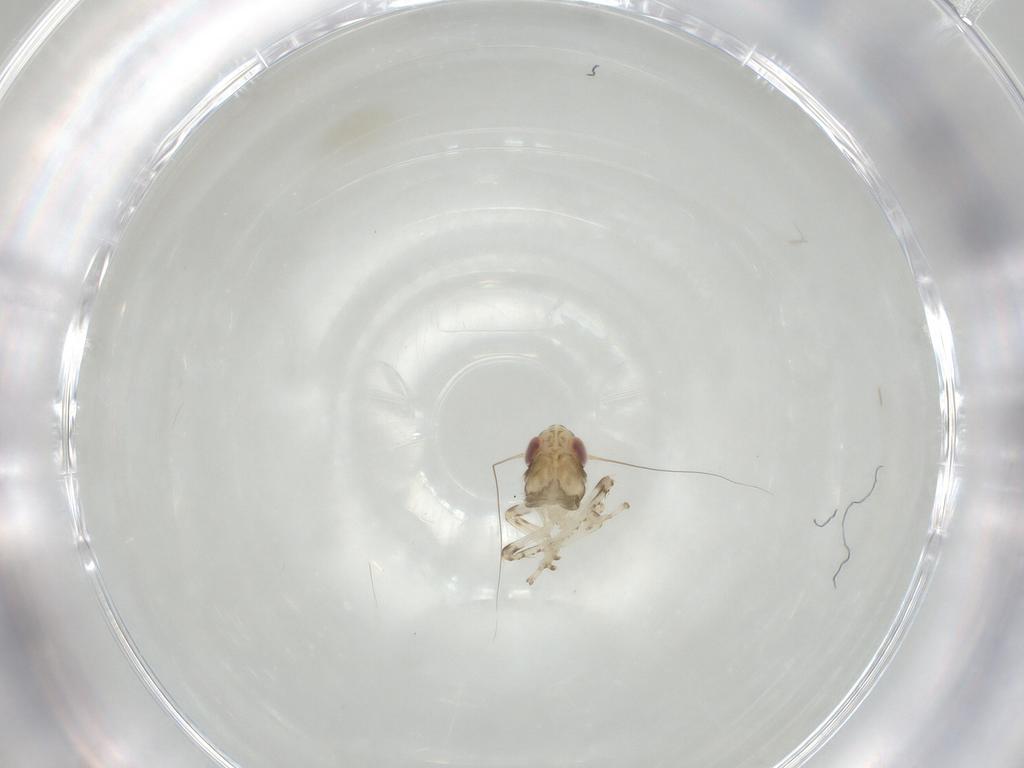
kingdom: Animalia
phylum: Arthropoda
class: Insecta
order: Hemiptera
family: Cicadellidae
